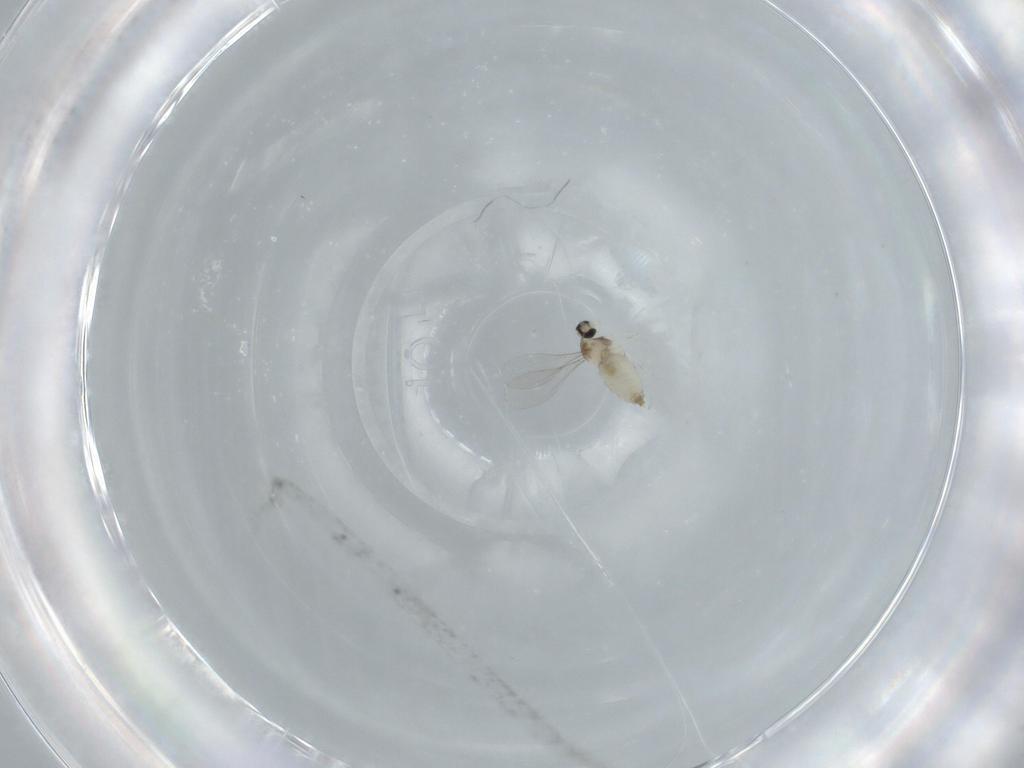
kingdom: Animalia
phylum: Arthropoda
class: Insecta
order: Diptera
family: Cecidomyiidae
